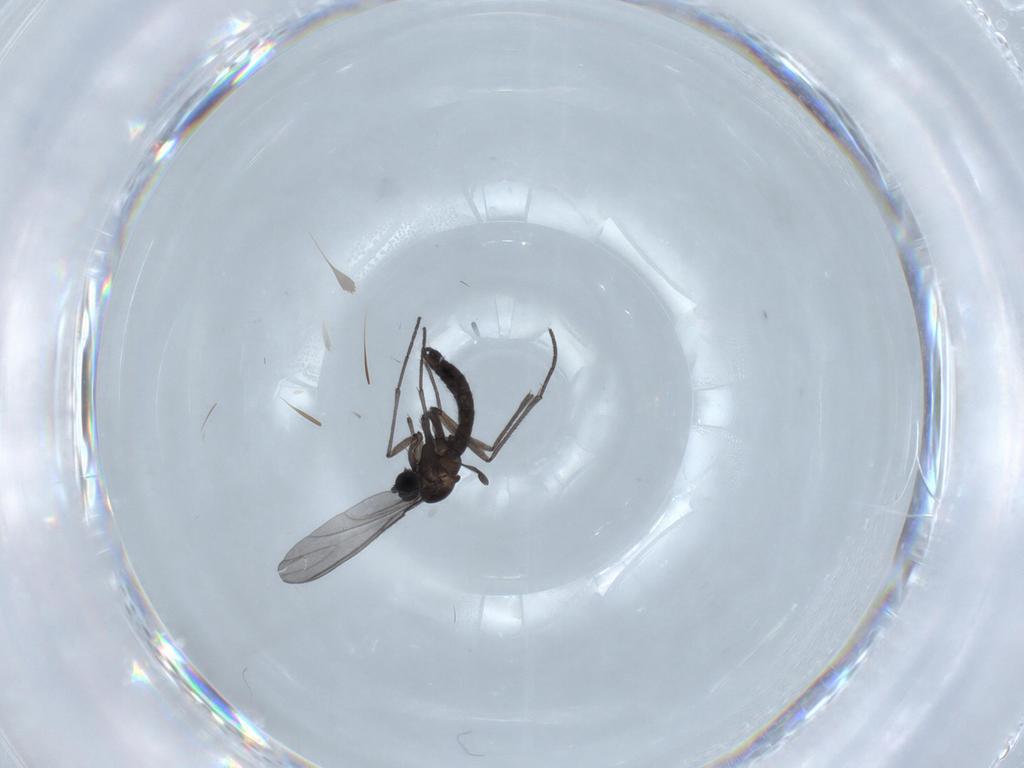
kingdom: Animalia
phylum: Arthropoda
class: Insecta
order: Diptera
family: Sciaridae
